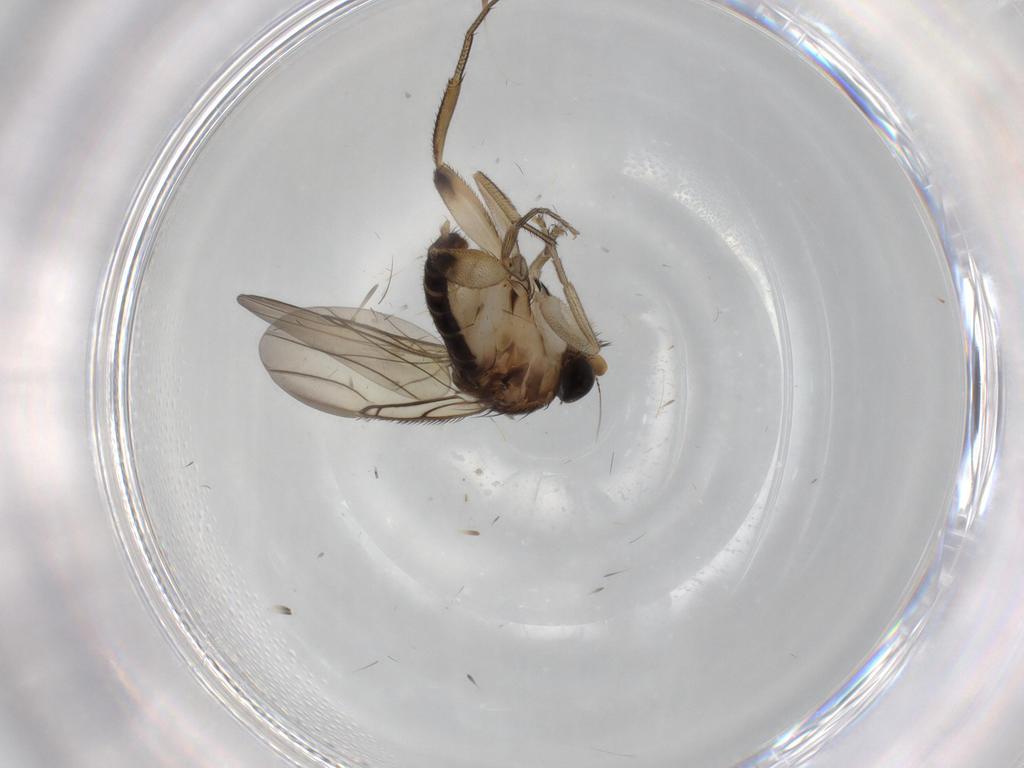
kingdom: Animalia
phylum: Arthropoda
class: Insecta
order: Diptera
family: Phoridae
